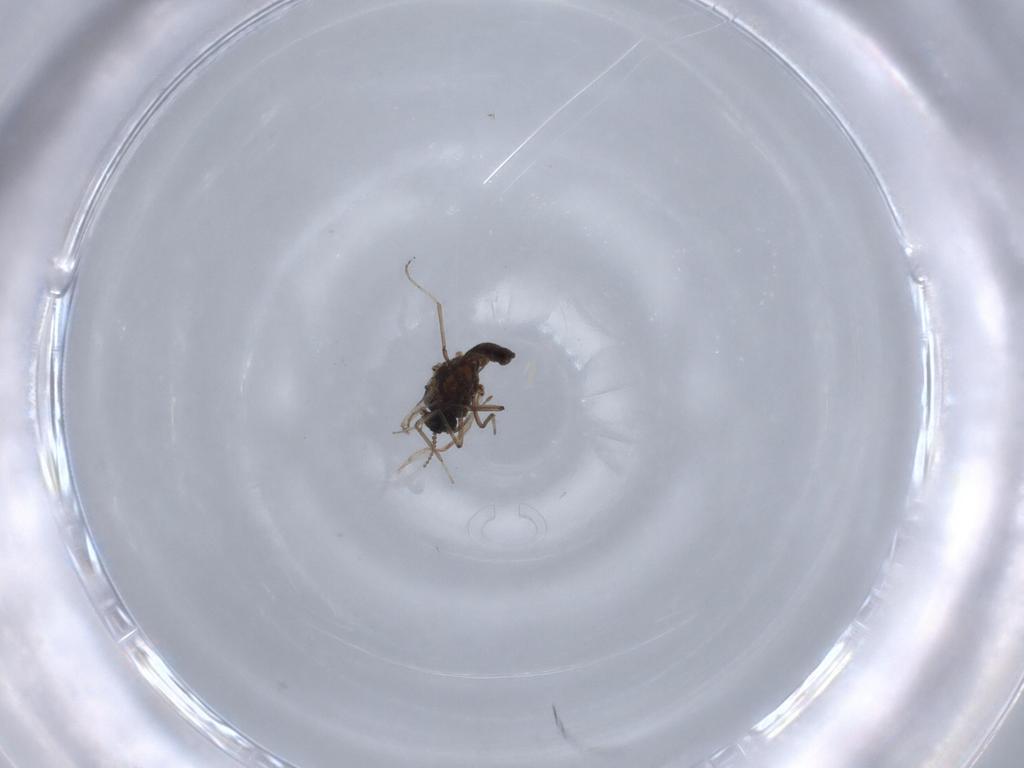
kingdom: Animalia
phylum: Arthropoda
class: Insecta
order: Diptera
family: Ceratopogonidae
